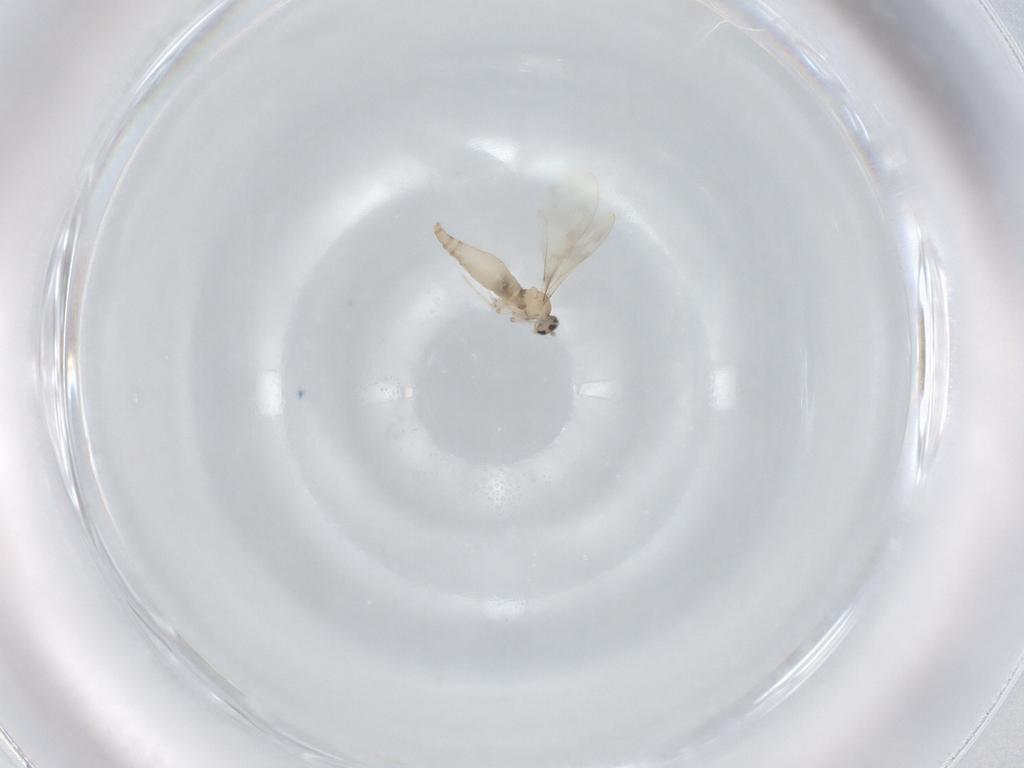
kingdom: Animalia
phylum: Arthropoda
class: Insecta
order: Diptera
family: Cecidomyiidae
